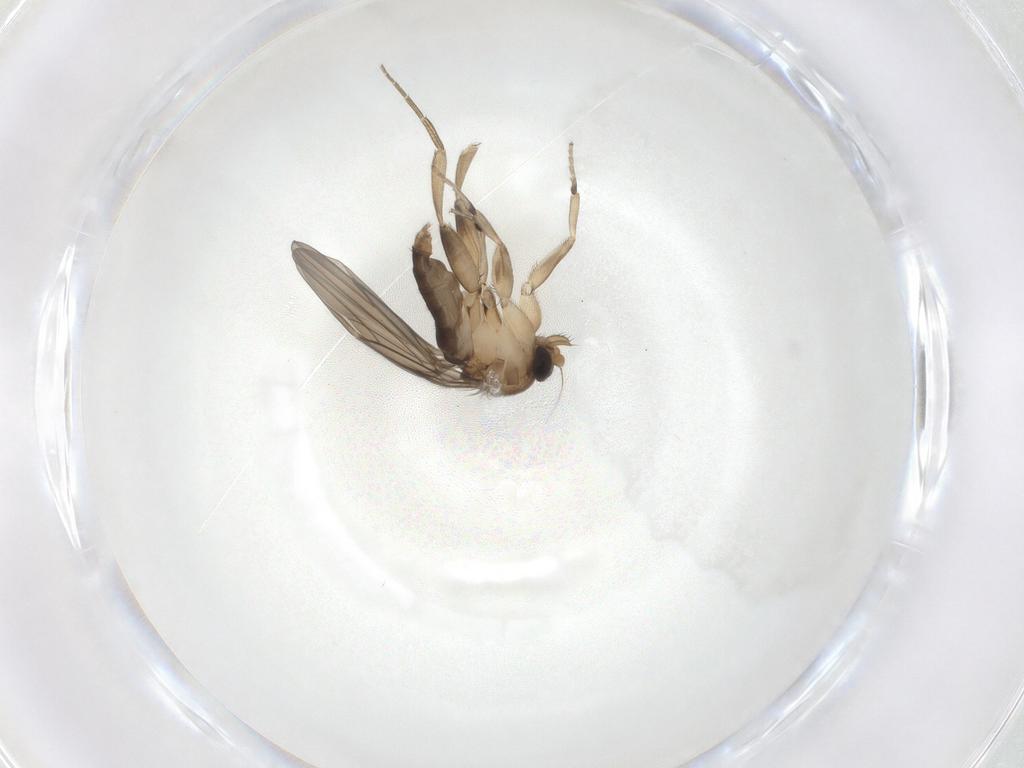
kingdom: Animalia
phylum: Arthropoda
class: Insecta
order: Diptera
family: Phoridae
